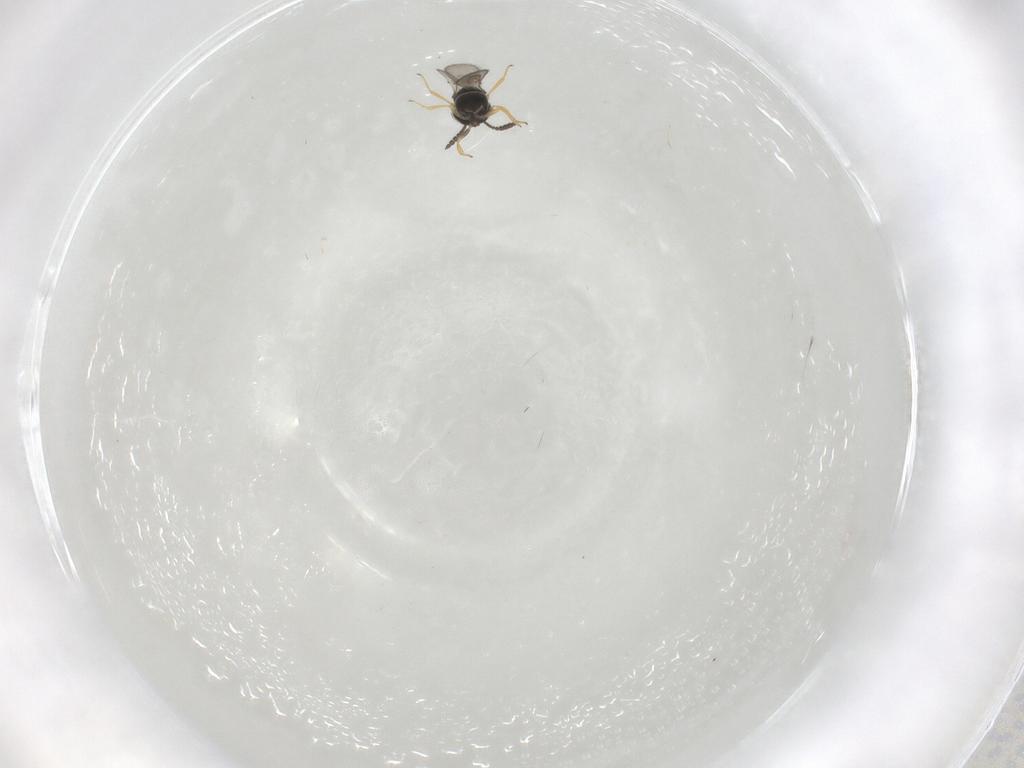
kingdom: Animalia
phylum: Arthropoda
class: Insecta
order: Hymenoptera
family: Scelionidae
